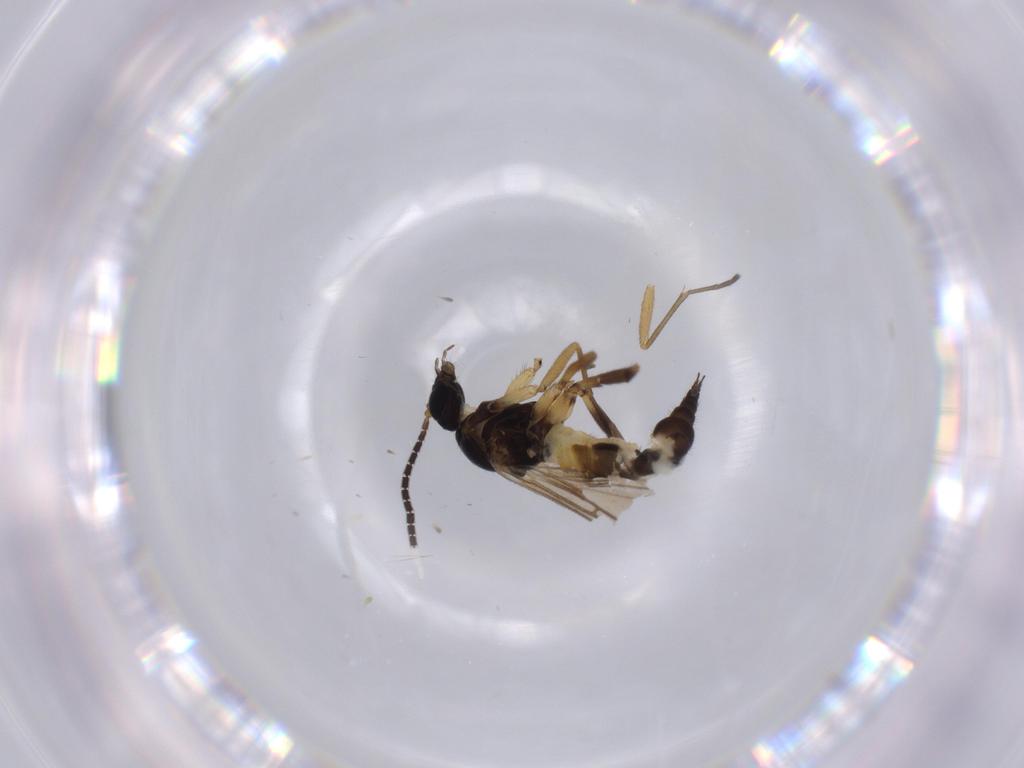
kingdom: Animalia
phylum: Arthropoda
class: Insecta
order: Diptera
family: Cecidomyiidae
